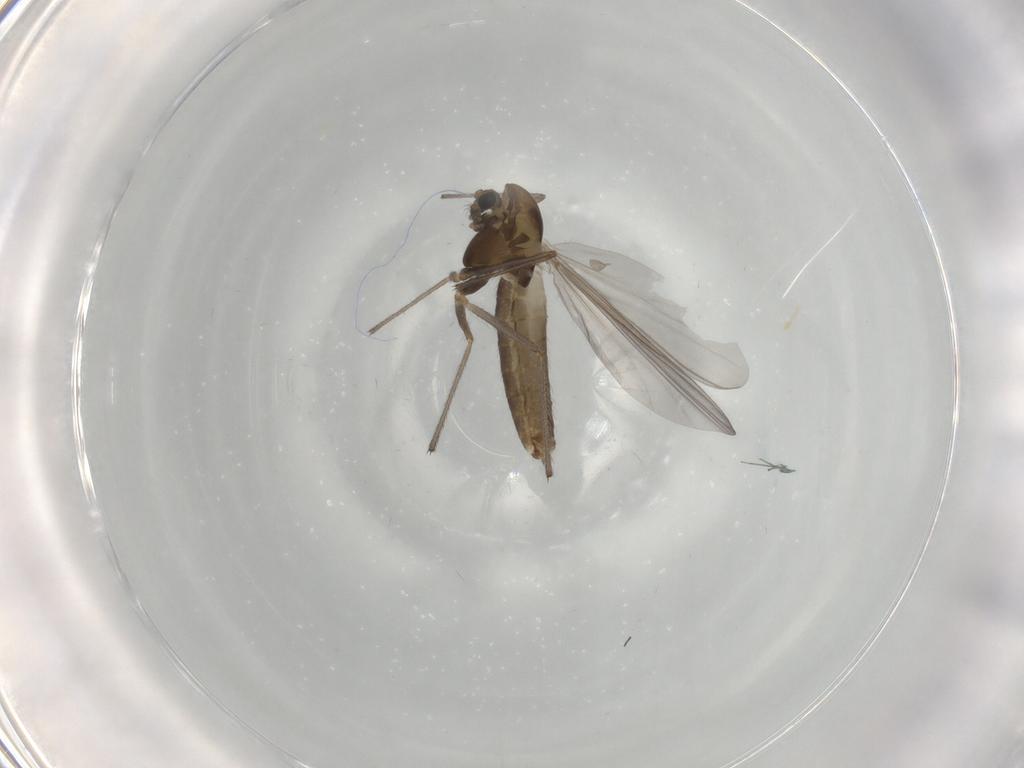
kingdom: Animalia
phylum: Arthropoda
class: Insecta
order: Diptera
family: Chironomidae
